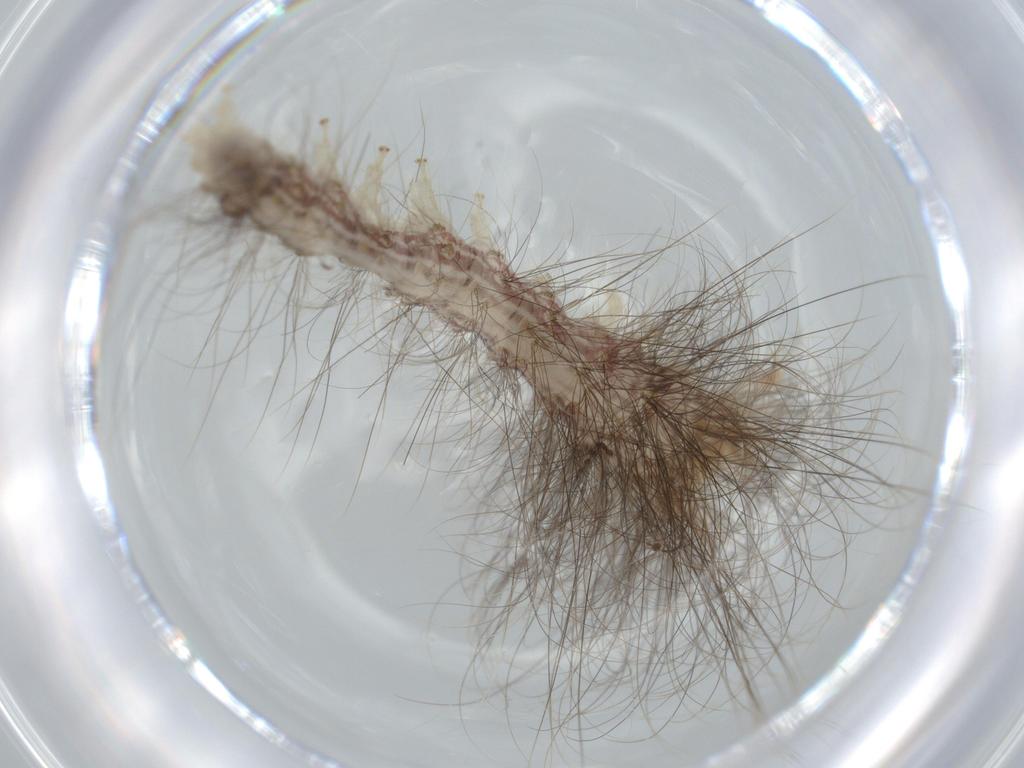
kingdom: Animalia
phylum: Arthropoda
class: Insecta
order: Lepidoptera
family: Apatelodidae
